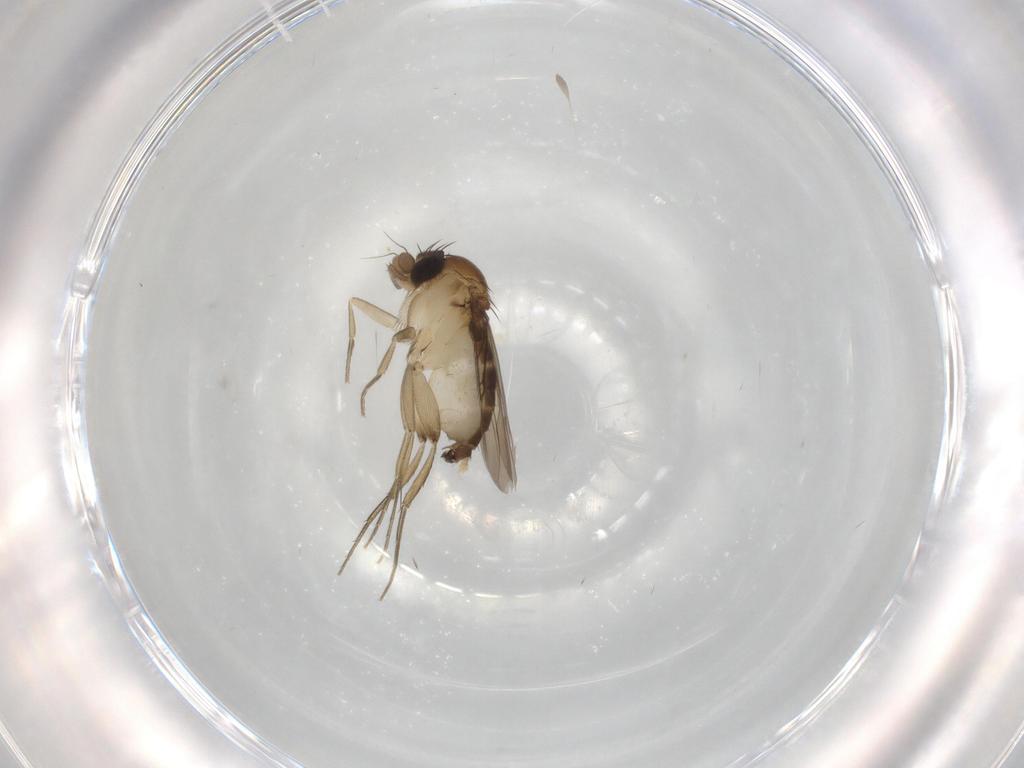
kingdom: Animalia
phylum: Arthropoda
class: Insecta
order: Diptera
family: Phoridae
